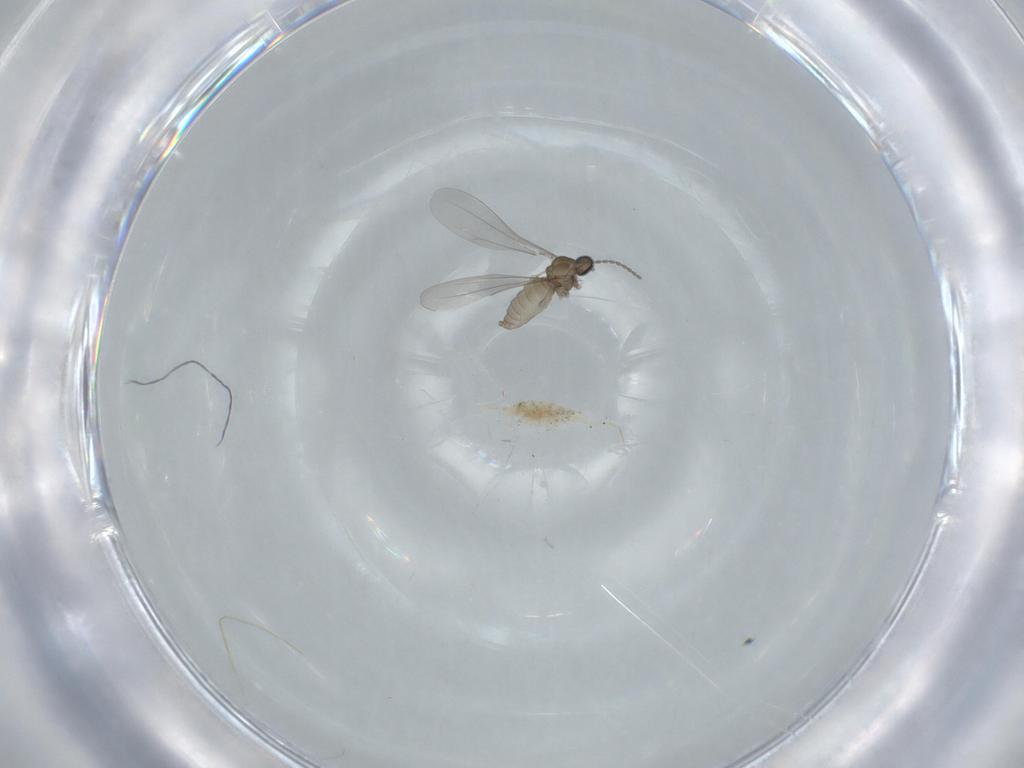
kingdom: Animalia
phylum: Arthropoda
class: Insecta
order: Diptera
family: Cecidomyiidae
